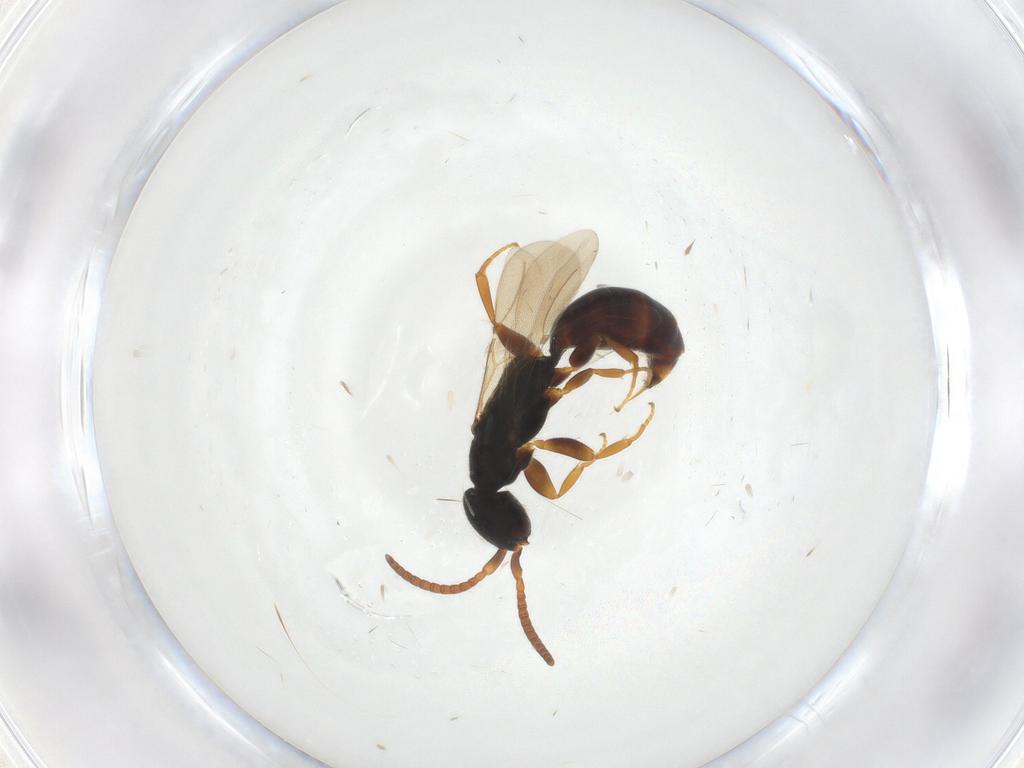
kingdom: Animalia
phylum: Arthropoda
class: Insecta
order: Hymenoptera
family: Bethylidae
